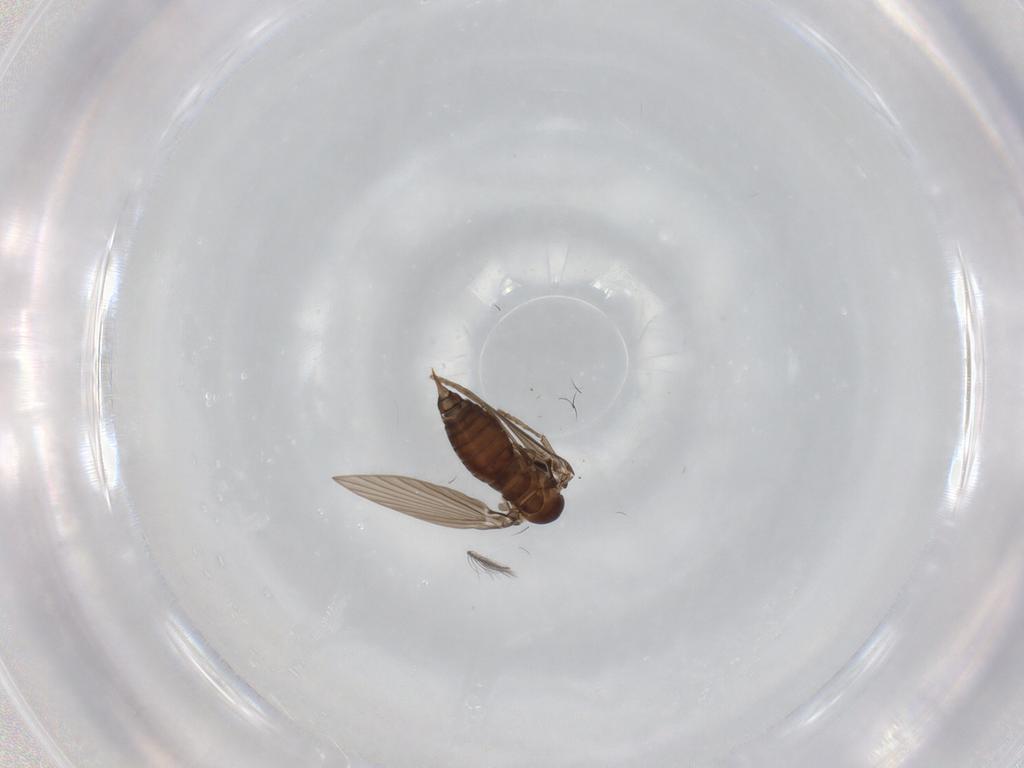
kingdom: Animalia
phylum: Arthropoda
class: Insecta
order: Diptera
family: Psychodidae
